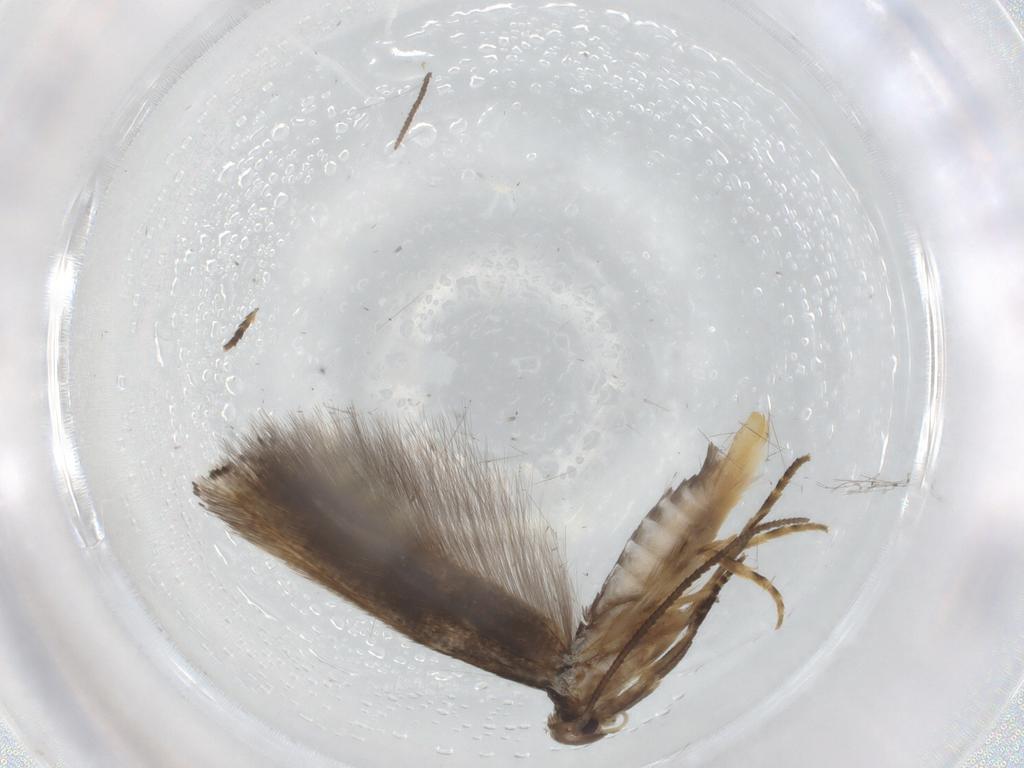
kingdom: Animalia
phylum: Arthropoda
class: Insecta
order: Lepidoptera
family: Elachistidae
